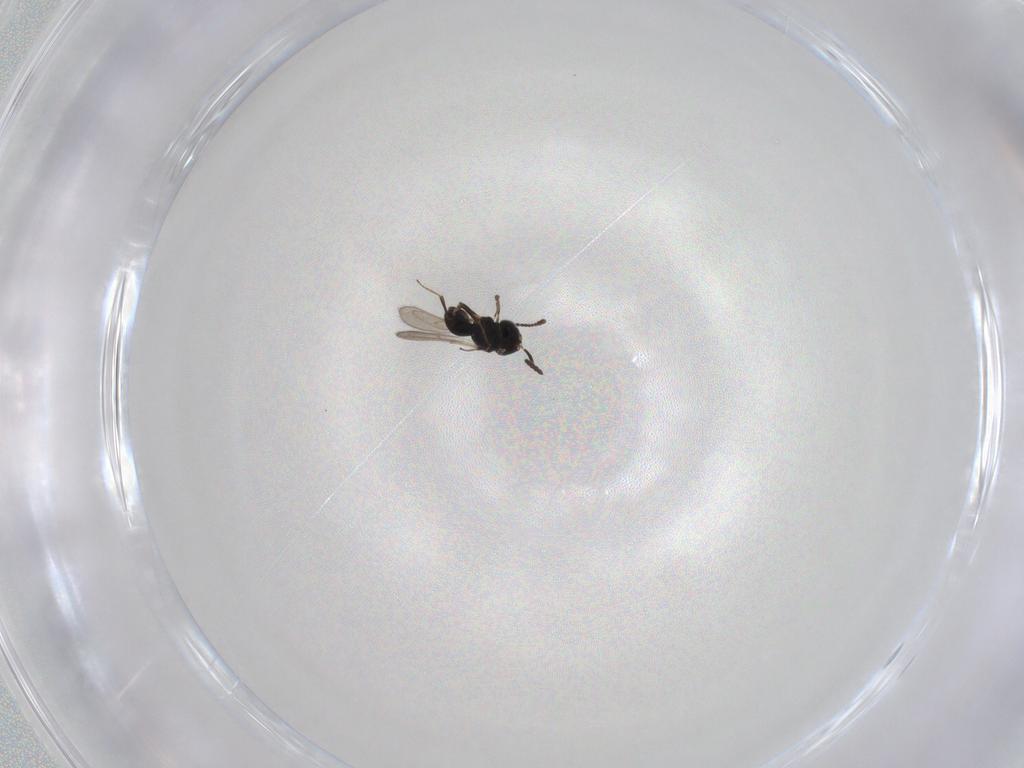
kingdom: Animalia
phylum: Arthropoda
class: Insecta
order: Hymenoptera
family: Scelionidae
